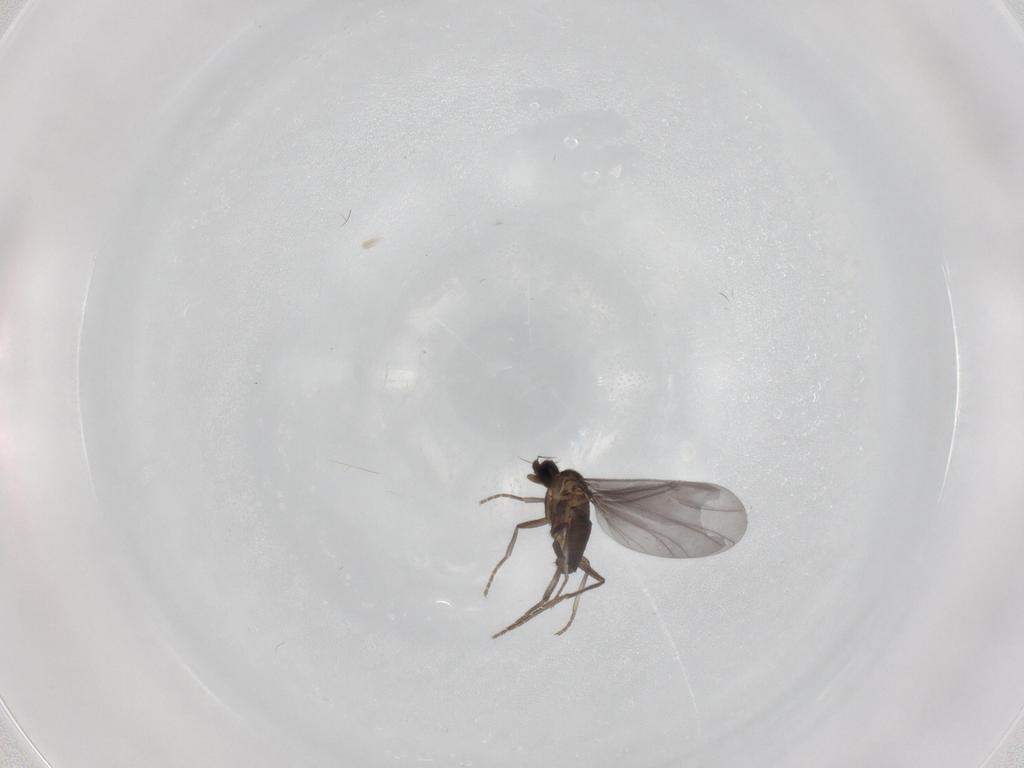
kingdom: Animalia
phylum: Arthropoda
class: Insecta
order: Diptera
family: Phoridae
